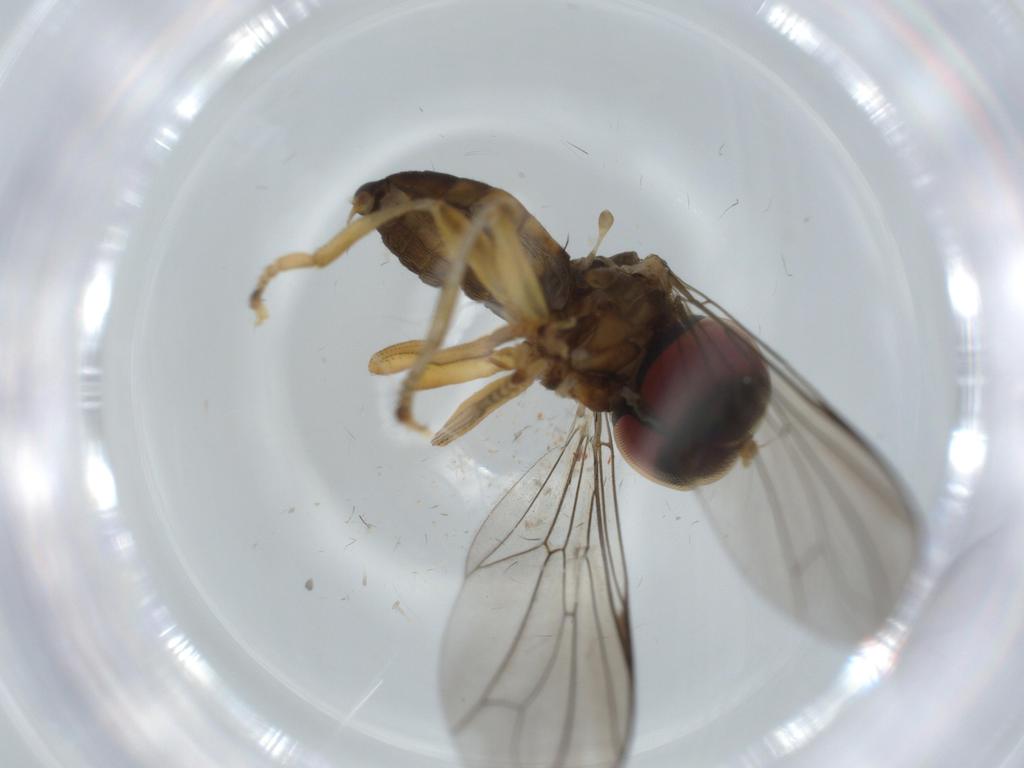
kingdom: Animalia
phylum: Arthropoda
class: Insecta
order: Diptera
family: Pipunculidae
